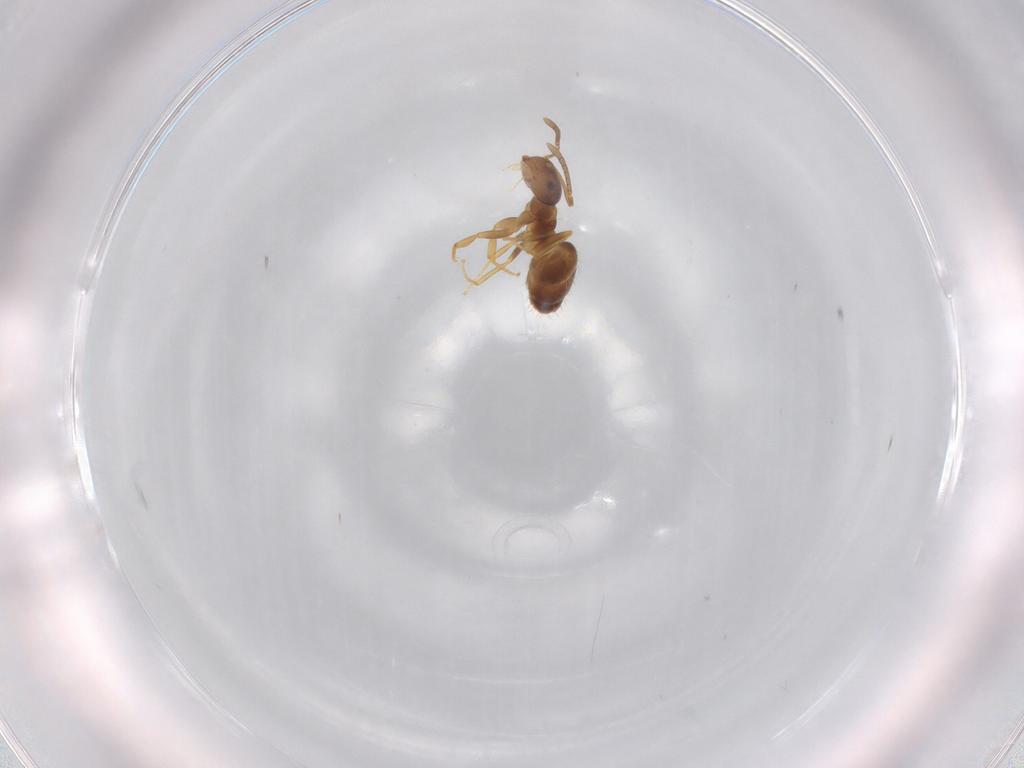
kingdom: Animalia
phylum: Arthropoda
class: Insecta
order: Hymenoptera
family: Formicidae
